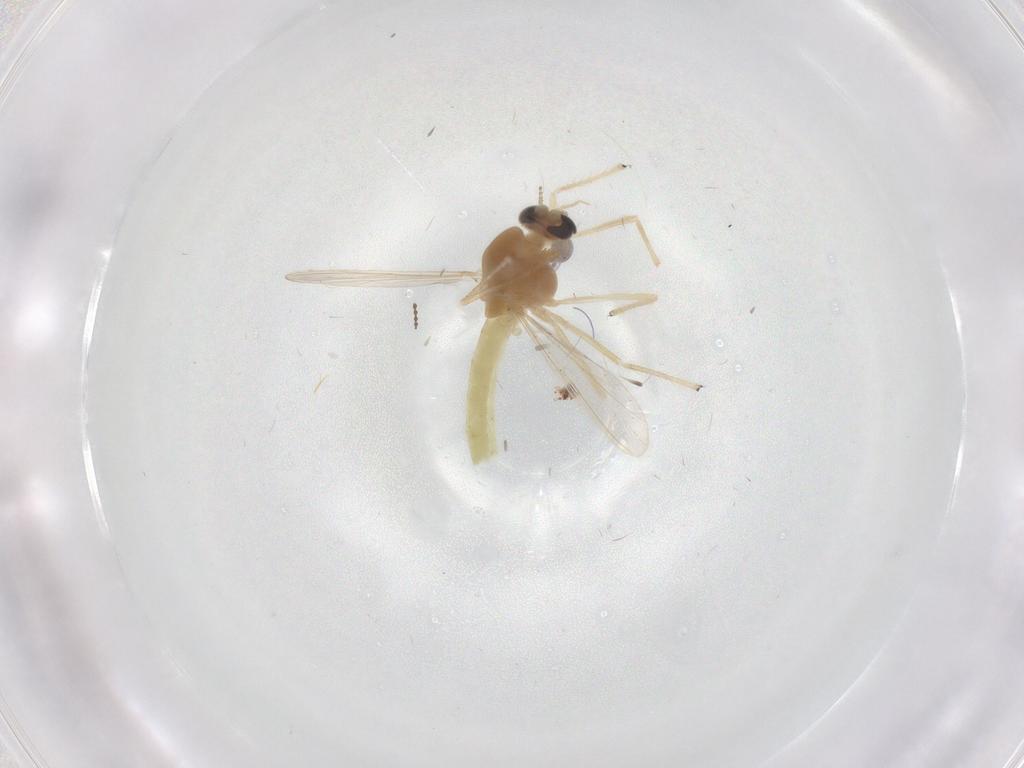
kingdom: Animalia
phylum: Arthropoda
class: Insecta
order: Diptera
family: Chironomidae
